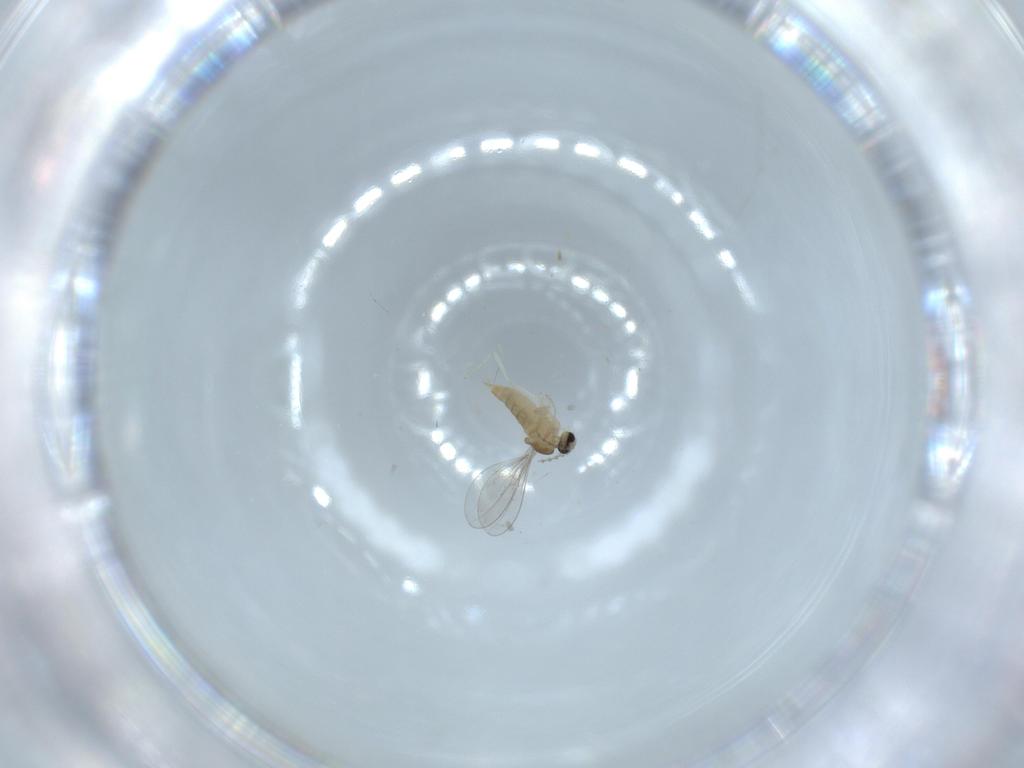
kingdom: Animalia
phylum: Arthropoda
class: Insecta
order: Diptera
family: Cecidomyiidae
